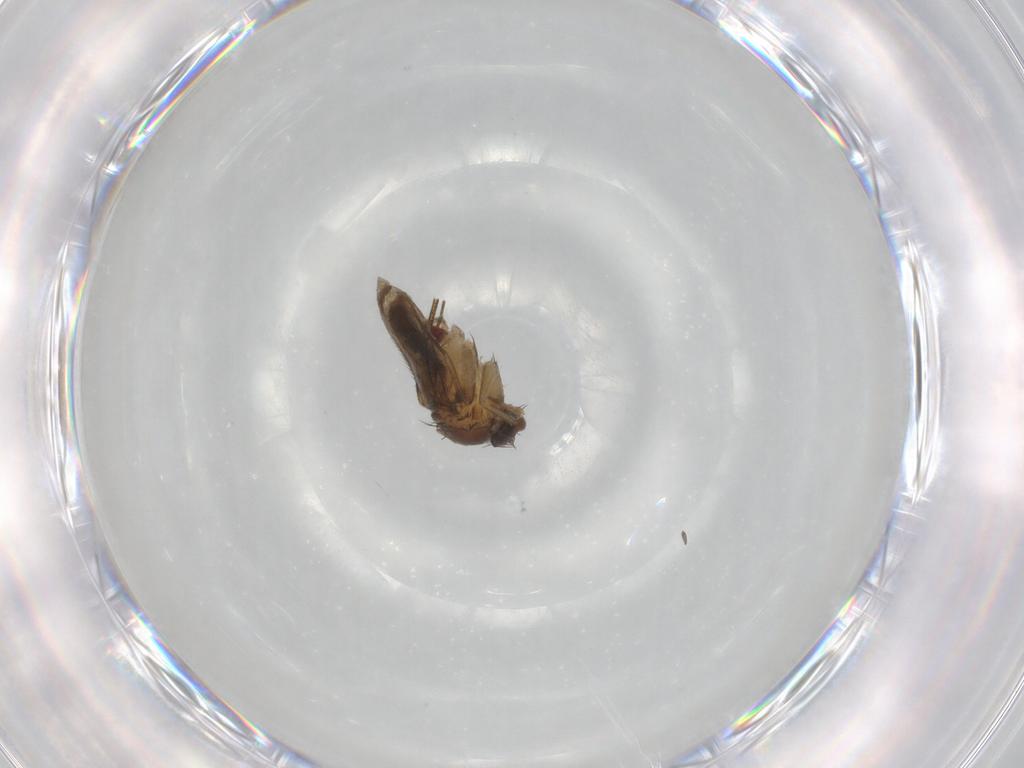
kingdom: Animalia
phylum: Arthropoda
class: Insecta
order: Diptera
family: Phoridae
